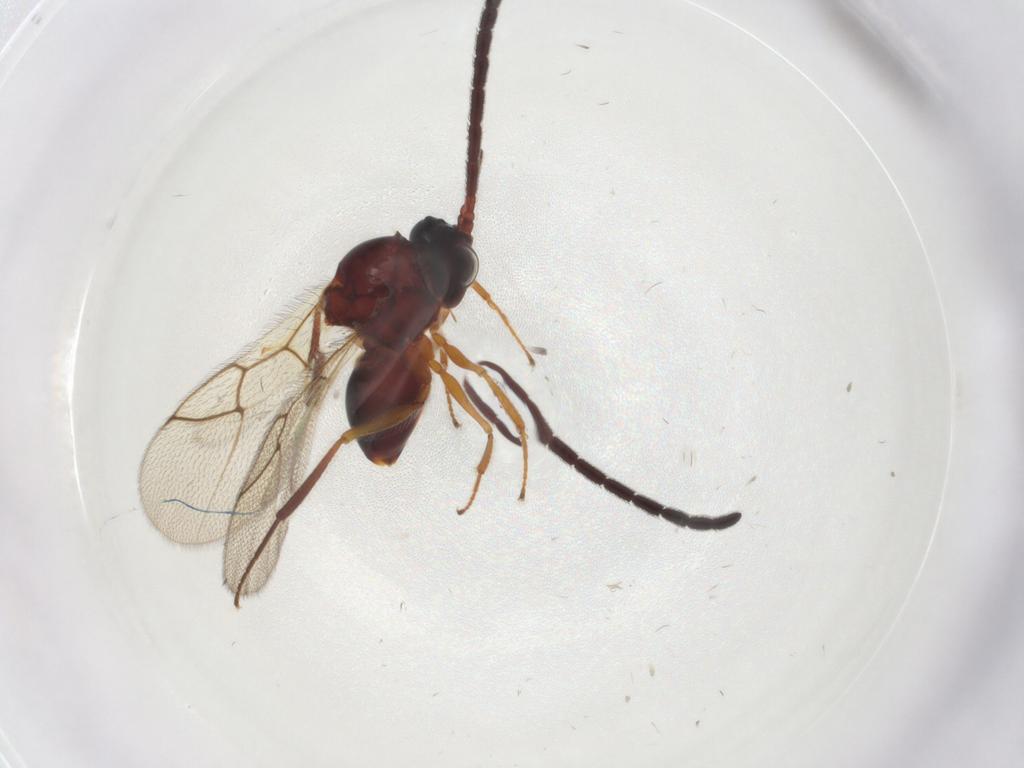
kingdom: Animalia
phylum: Arthropoda
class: Insecta
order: Hymenoptera
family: Figitidae
